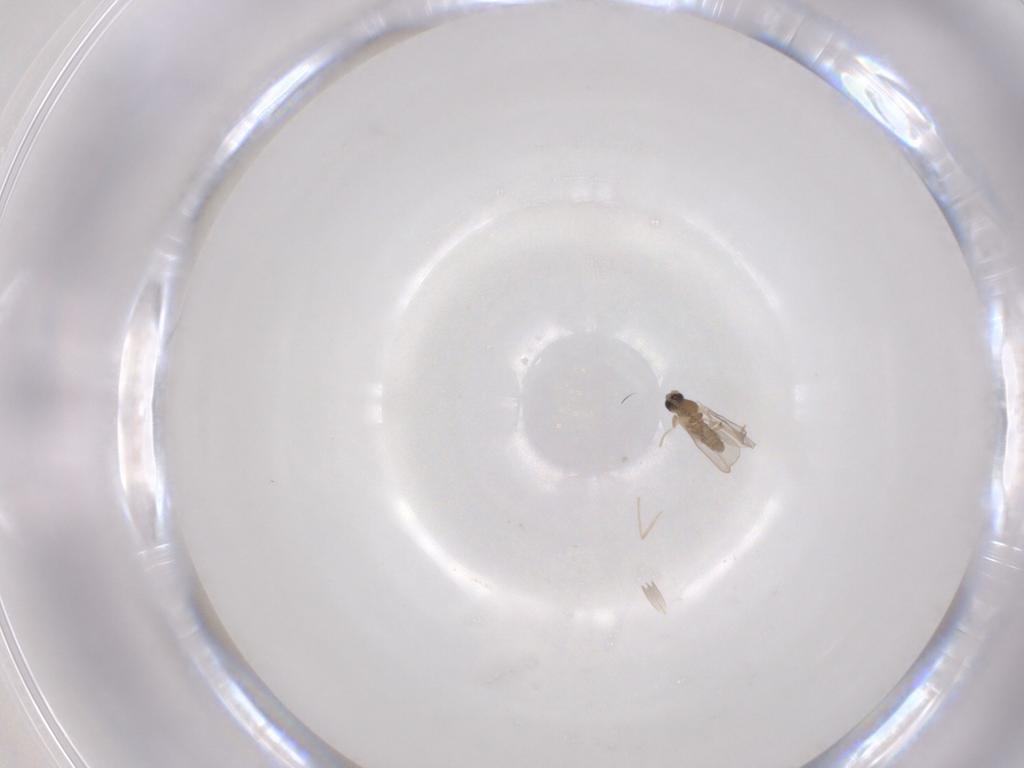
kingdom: Animalia
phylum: Arthropoda
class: Insecta
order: Diptera
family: Cecidomyiidae
